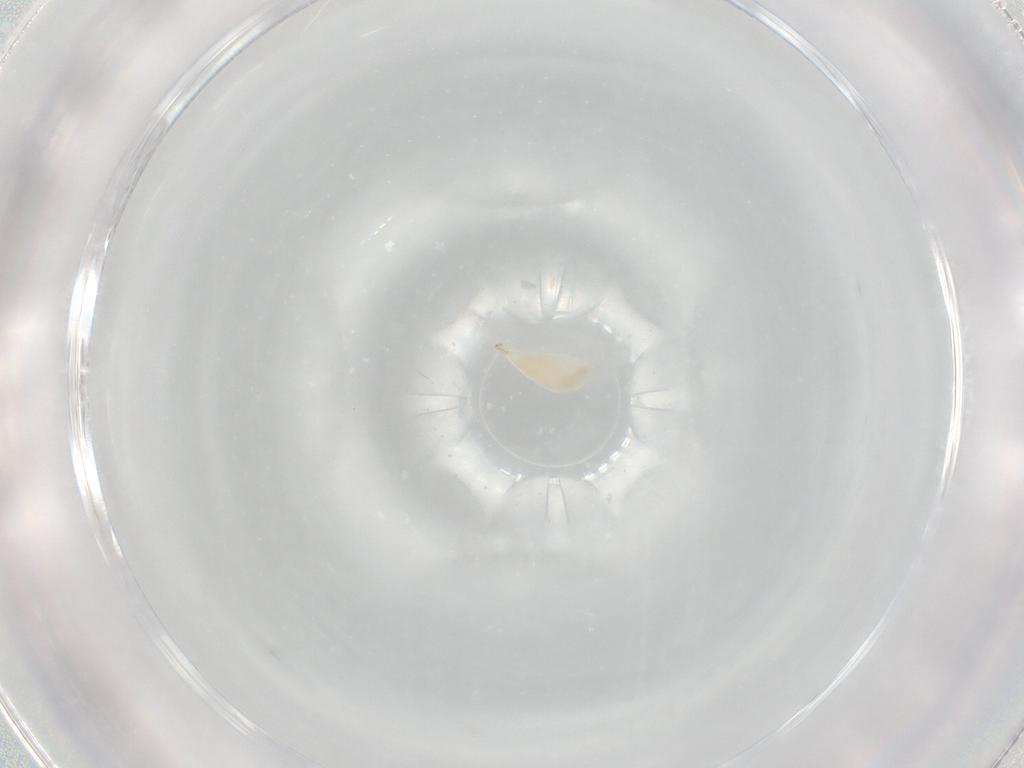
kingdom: Animalia
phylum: Arthropoda
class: Insecta
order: Hymenoptera
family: Ichneumonidae
